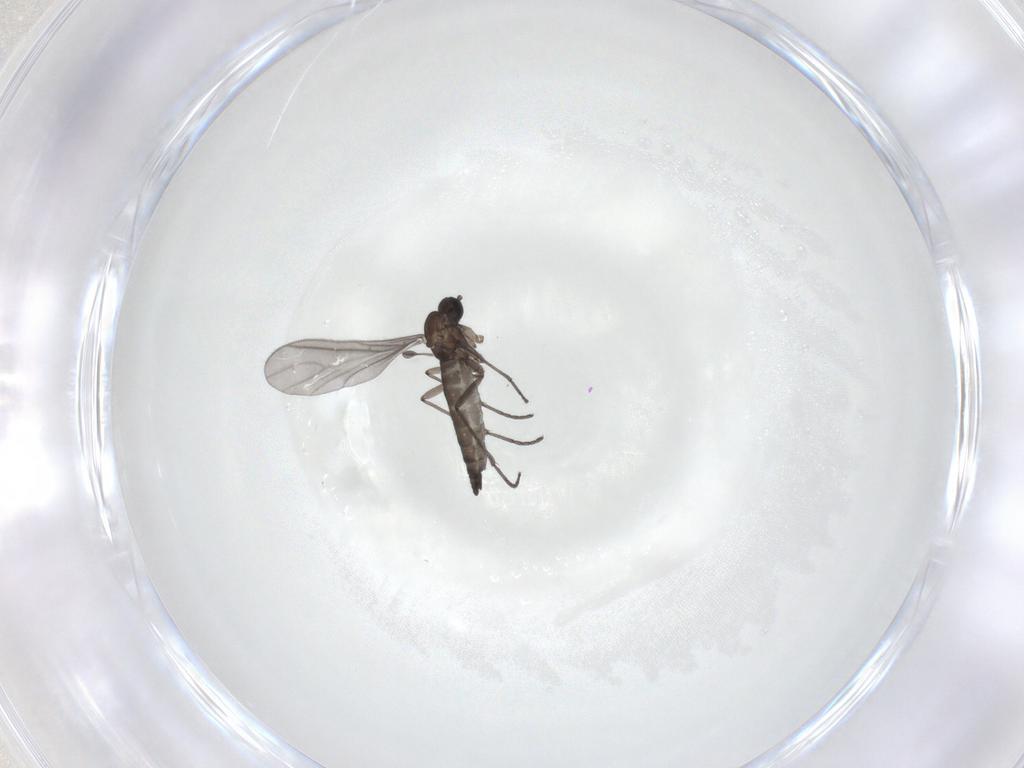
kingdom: Animalia
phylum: Arthropoda
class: Insecta
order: Diptera
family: Sciaridae
